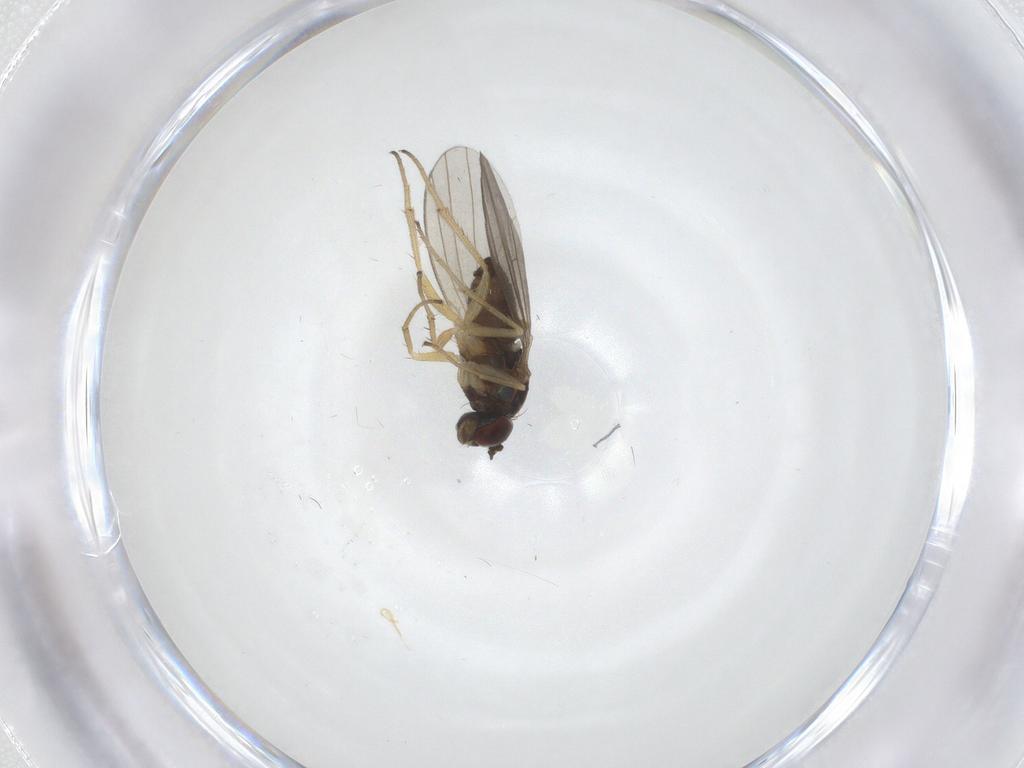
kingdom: Animalia
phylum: Arthropoda
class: Insecta
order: Diptera
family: Dolichopodidae
